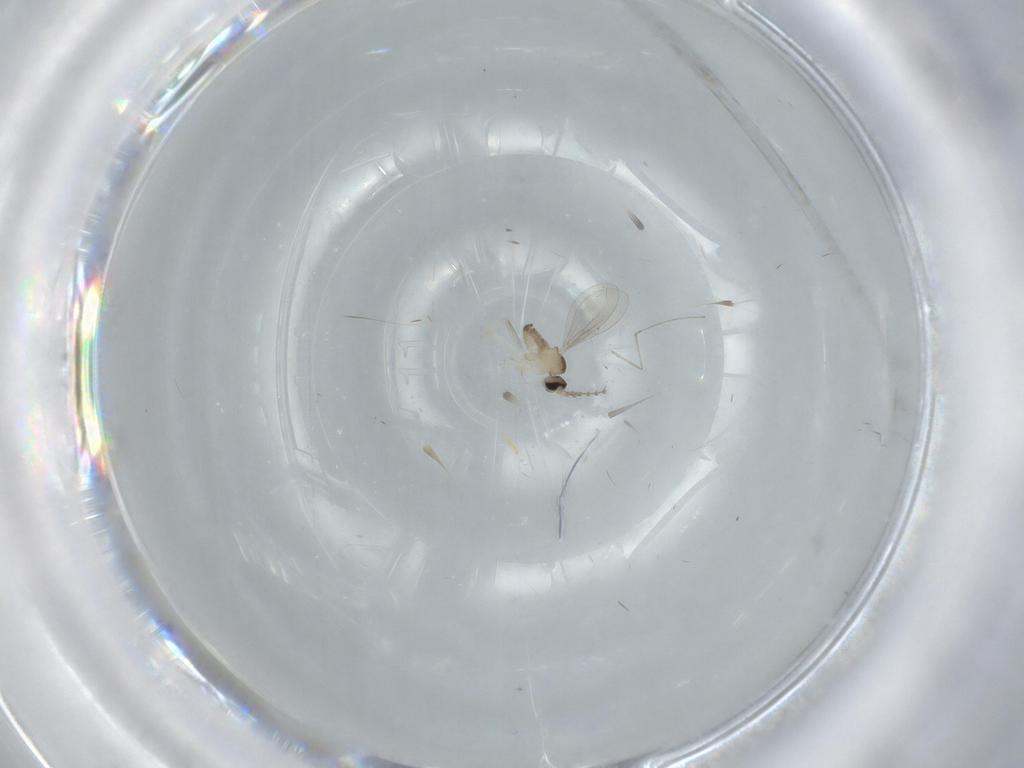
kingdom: Animalia
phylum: Arthropoda
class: Insecta
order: Diptera
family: Cecidomyiidae
